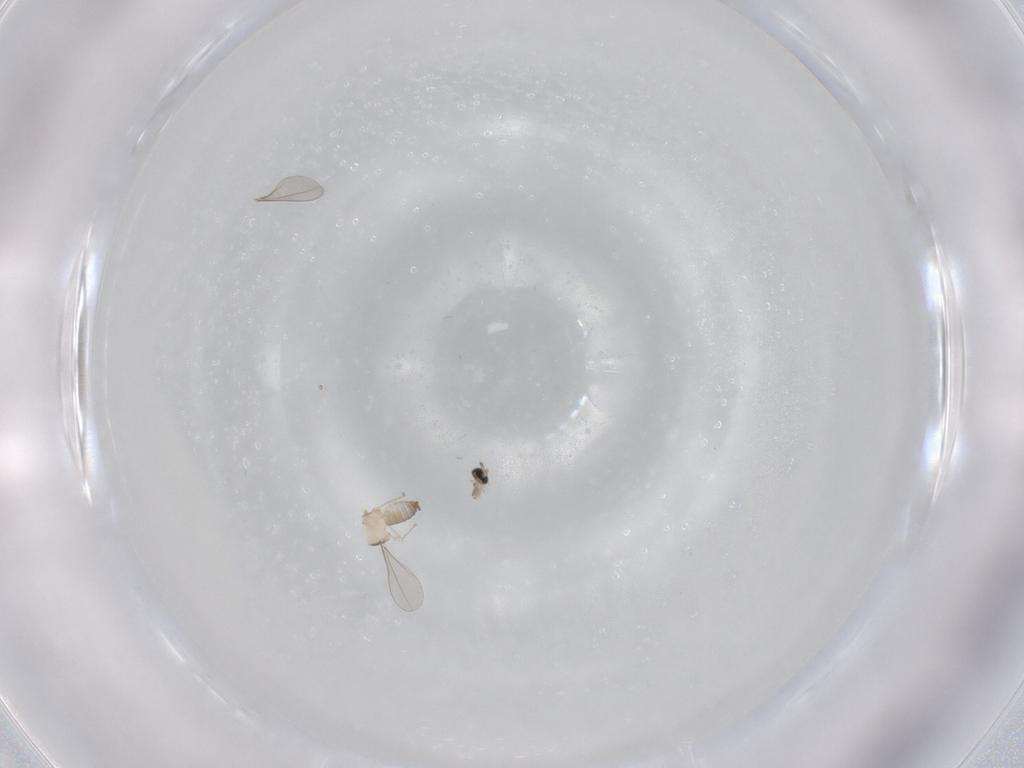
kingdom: Animalia
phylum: Arthropoda
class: Insecta
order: Diptera
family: Cecidomyiidae
